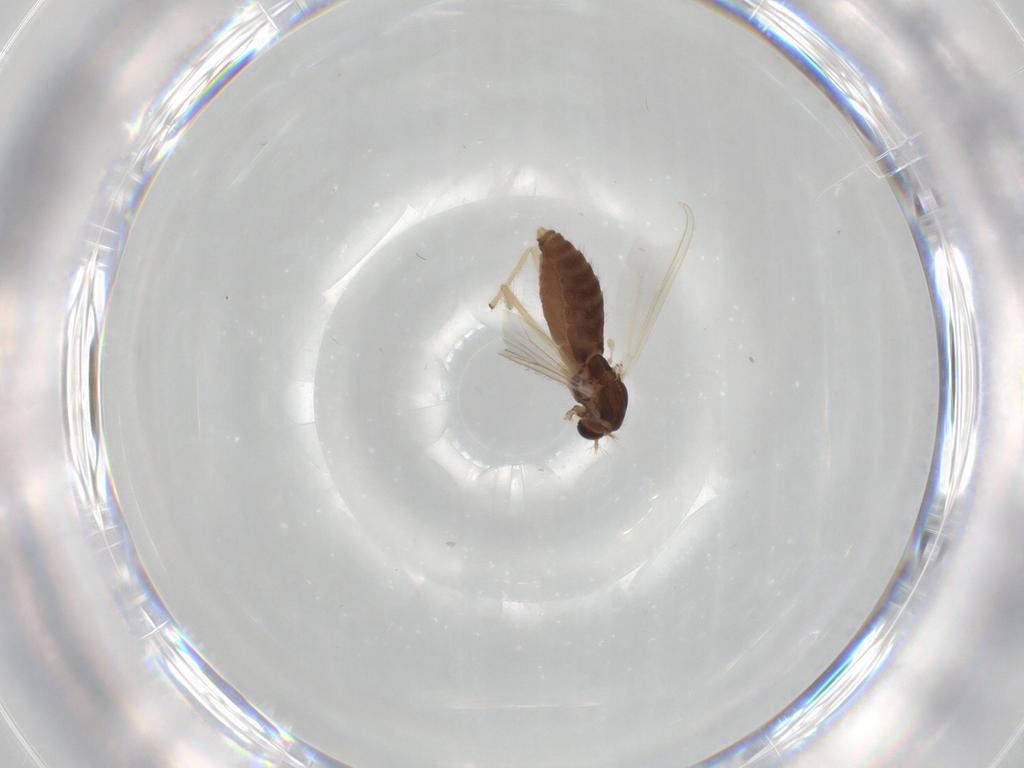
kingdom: Animalia
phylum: Arthropoda
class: Insecta
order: Diptera
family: Chironomidae
